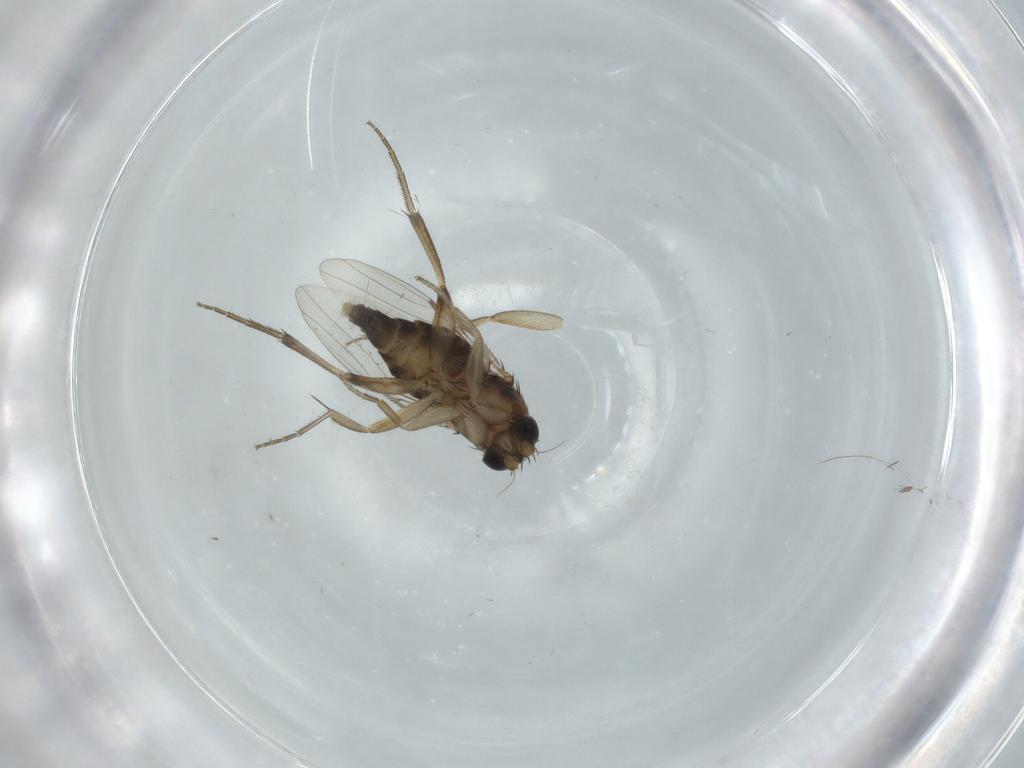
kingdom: Animalia
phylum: Arthropoda
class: Insecta
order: Diptera
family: Phoridae
